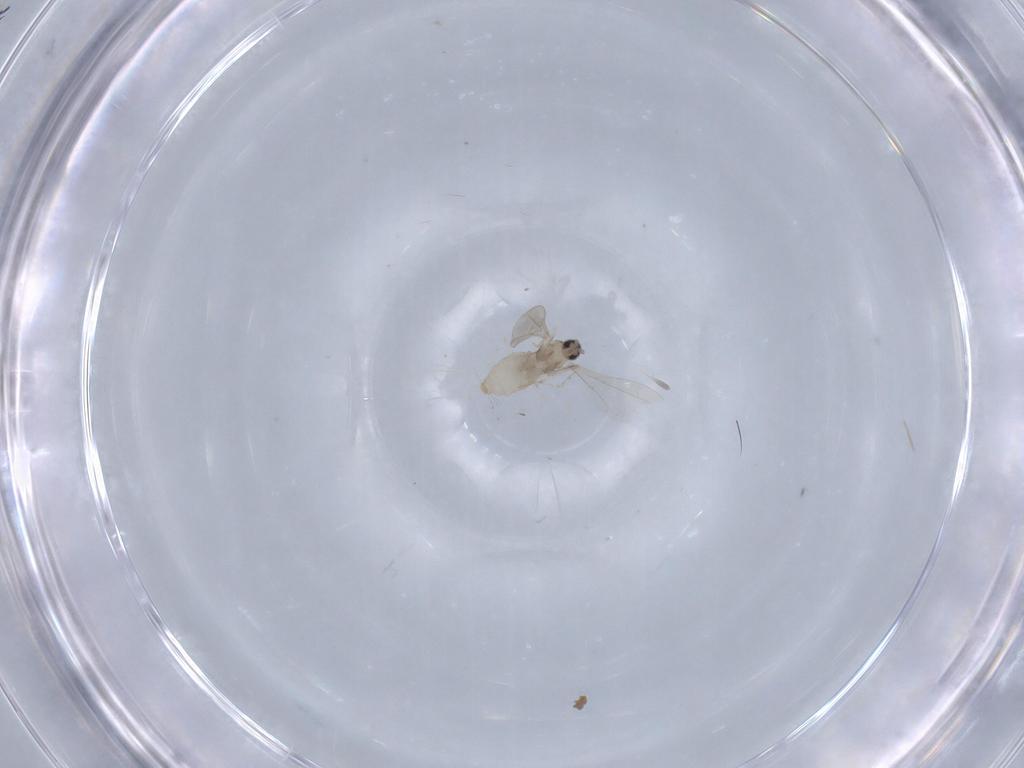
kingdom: Animalia
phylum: Arthropoda
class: Insecta
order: Diptera
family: Cecidomyiidae
